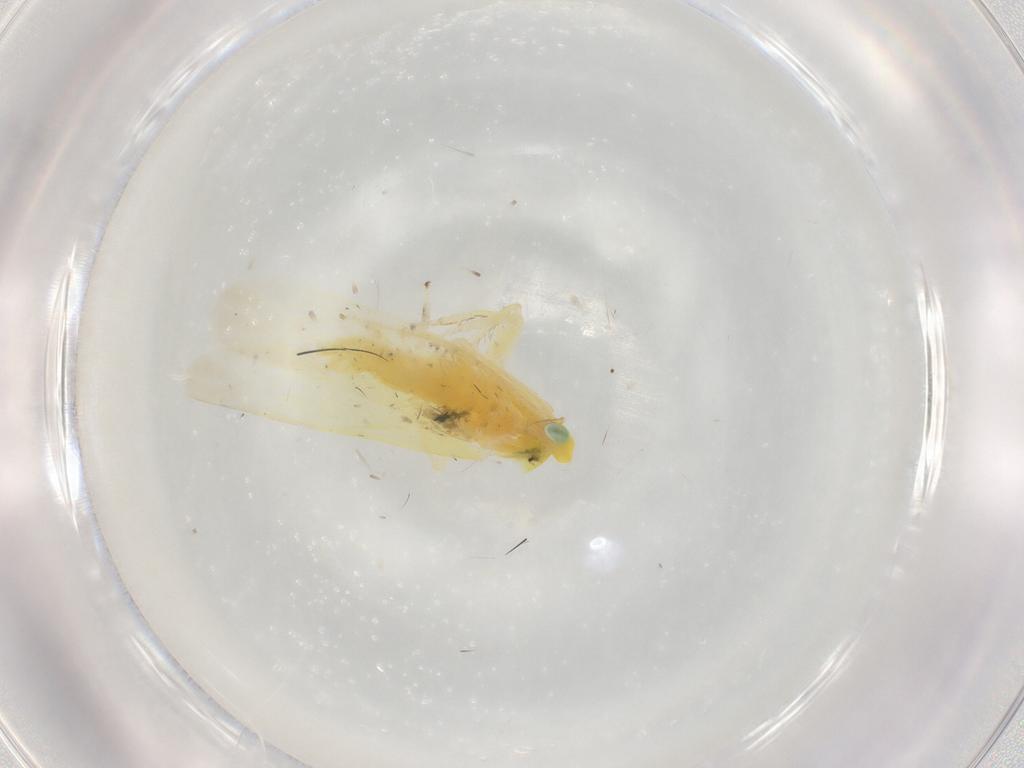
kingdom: Animalia
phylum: Arthropoda
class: Insecta
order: Hemiptera
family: Cicadellidae
